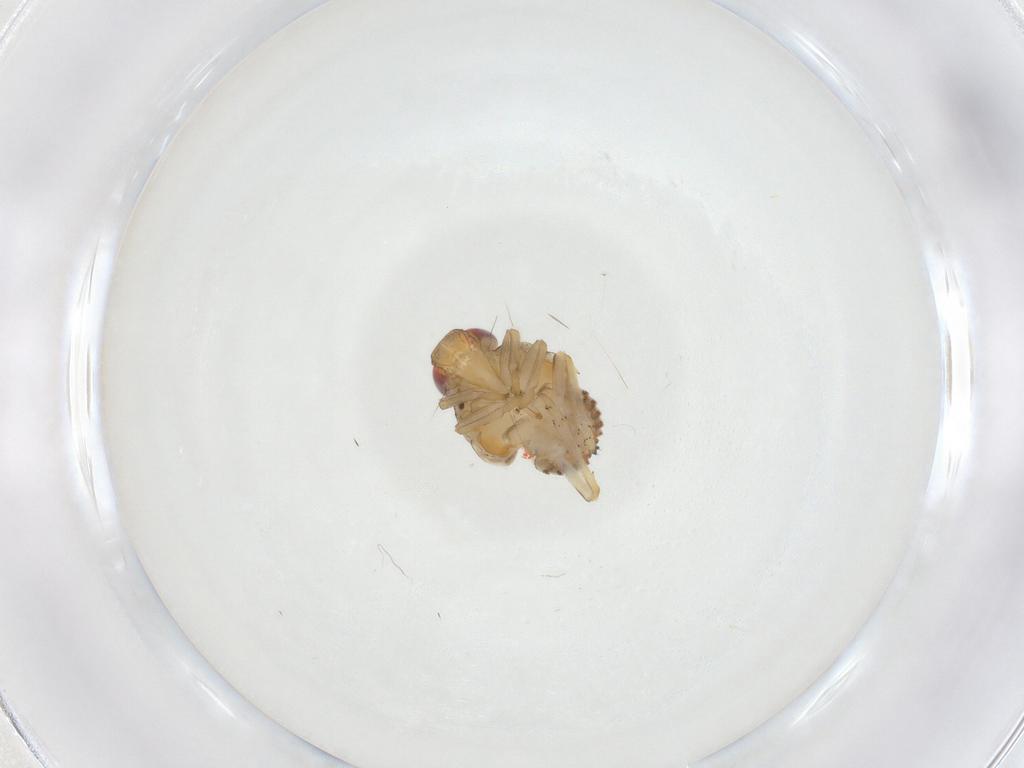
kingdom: Animalia
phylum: Arthropoda
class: Insecta
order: Hemiptera
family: Issidae
